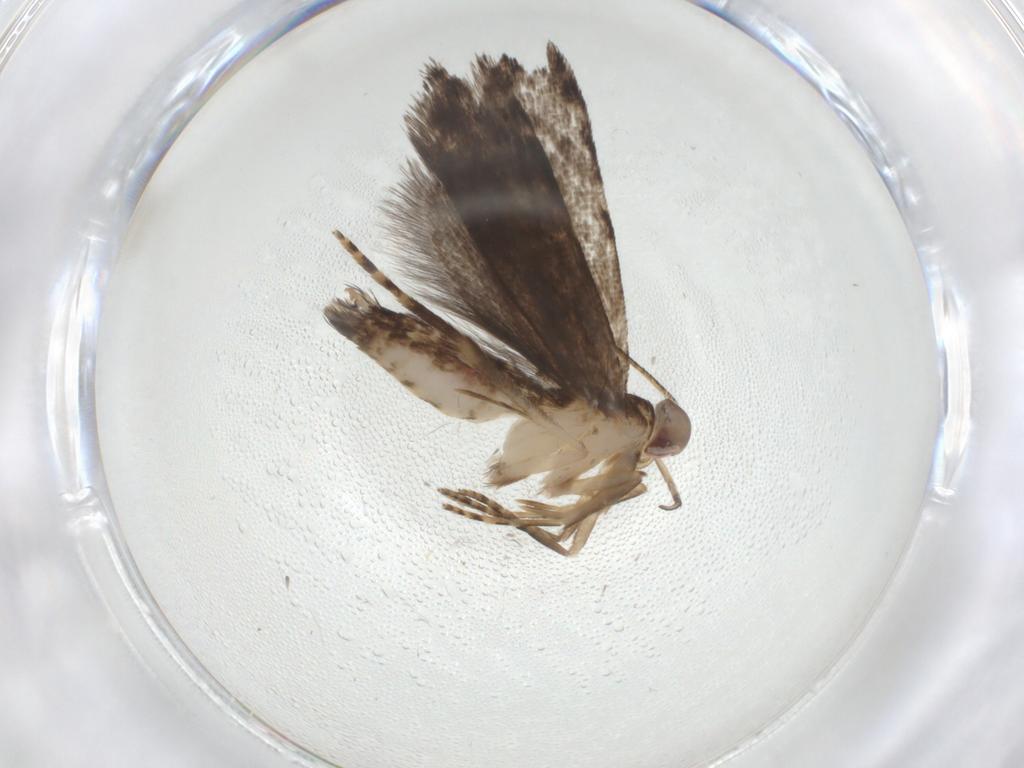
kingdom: Animalia
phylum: Arthropoda
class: Insecta
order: Lepidoptera
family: Gelechiidae
